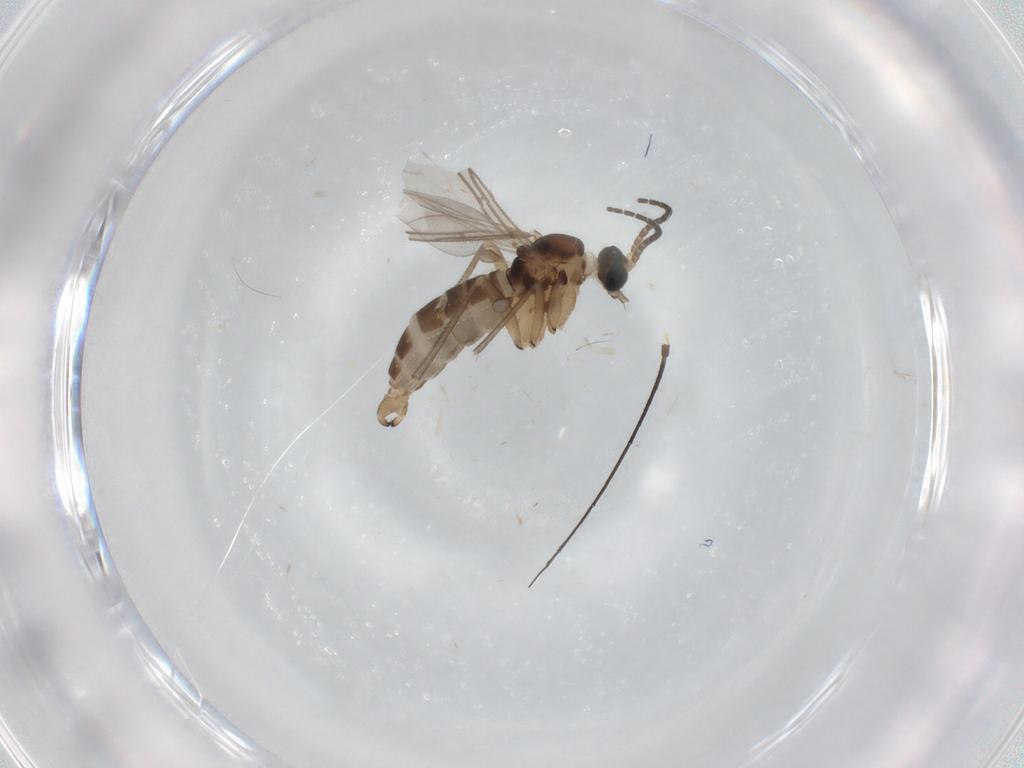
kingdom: Animalia
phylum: Arthropoda
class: Insecta
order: Diptera
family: Sciaridae
